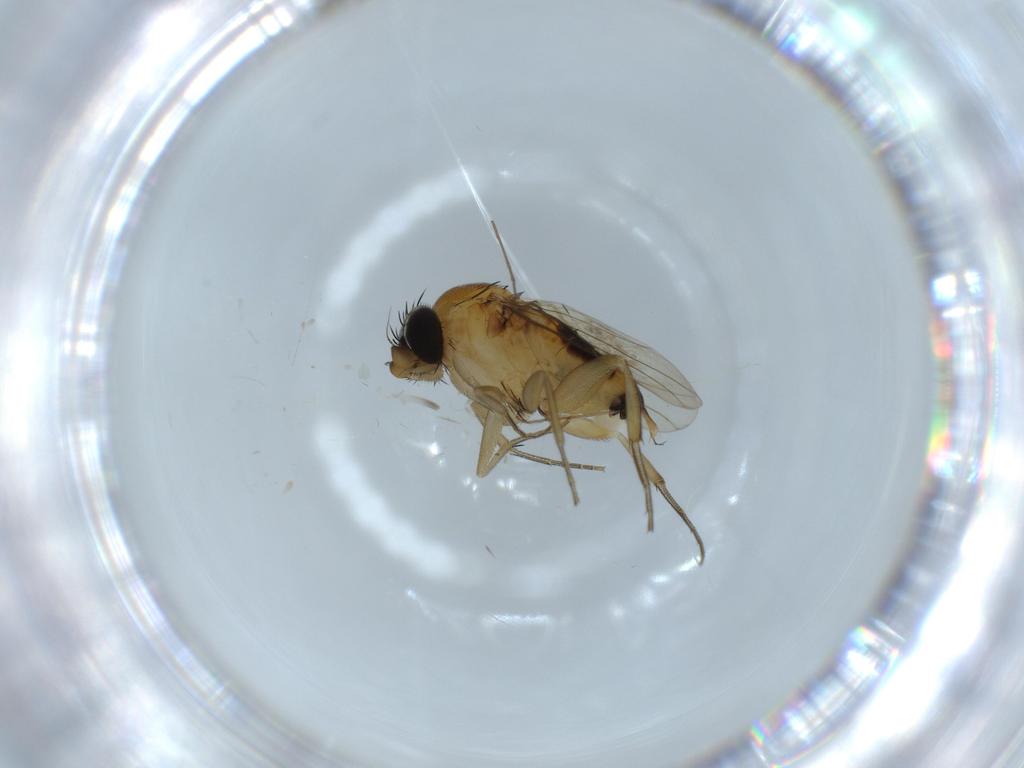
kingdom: Animalia
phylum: Arthropoda
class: Insecta
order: Diptera
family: Phoridae
